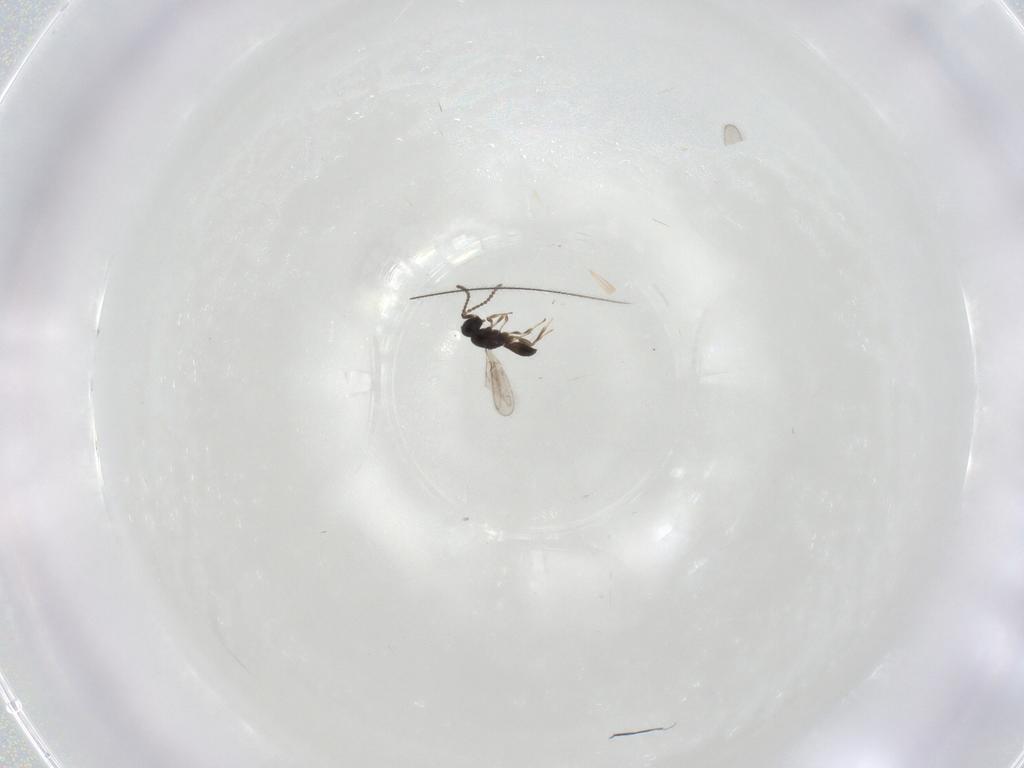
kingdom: Animalia
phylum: Arthropoda
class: Insecta
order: Hymenoptera
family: Scelionidae
